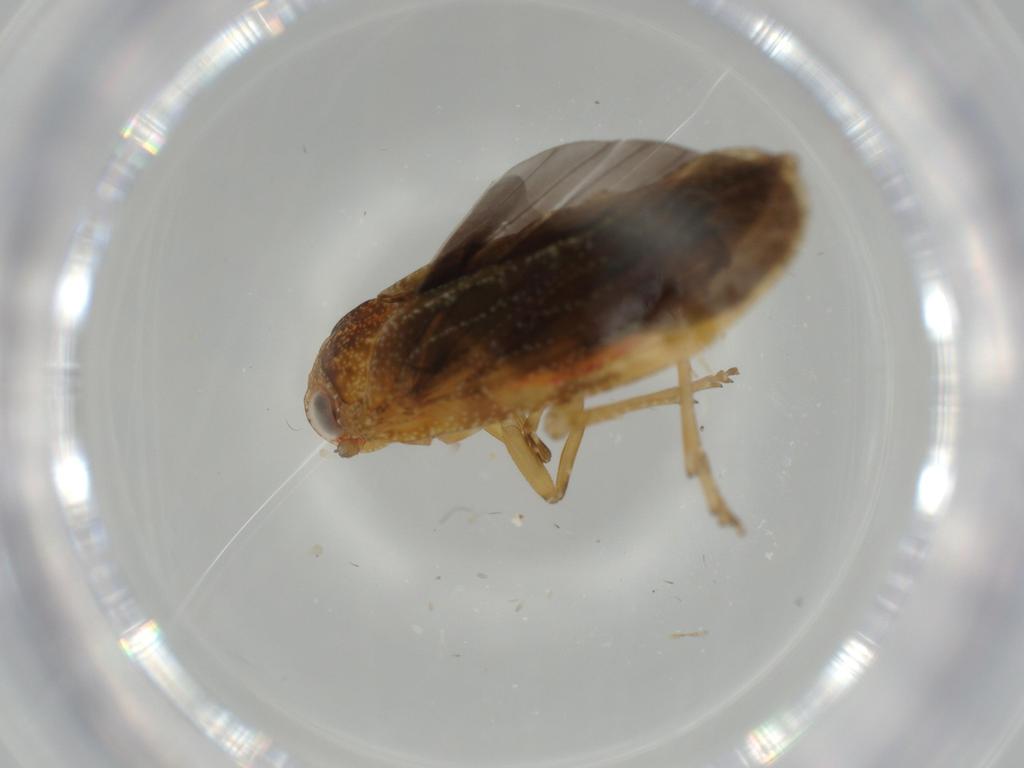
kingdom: Animalia
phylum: Arthropoda
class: Insecta
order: Hemiptera
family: Achilidae
